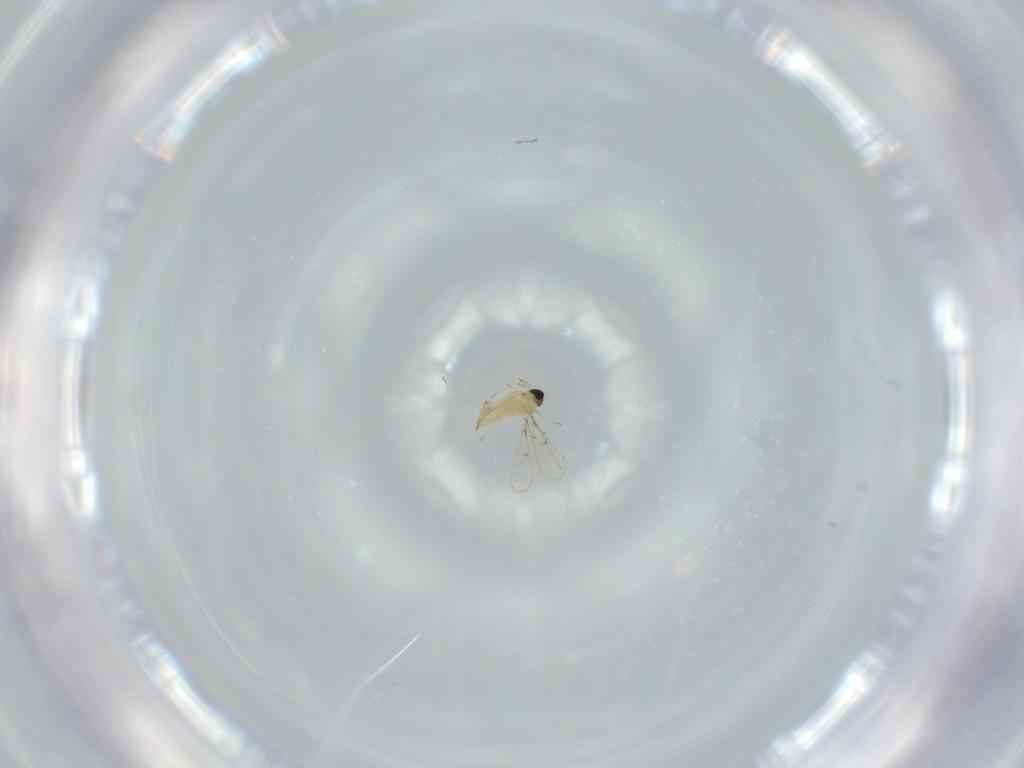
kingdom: Animalia
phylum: Arthropoda
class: Insecta
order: Hymenoptera
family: Trichogrammatidae
